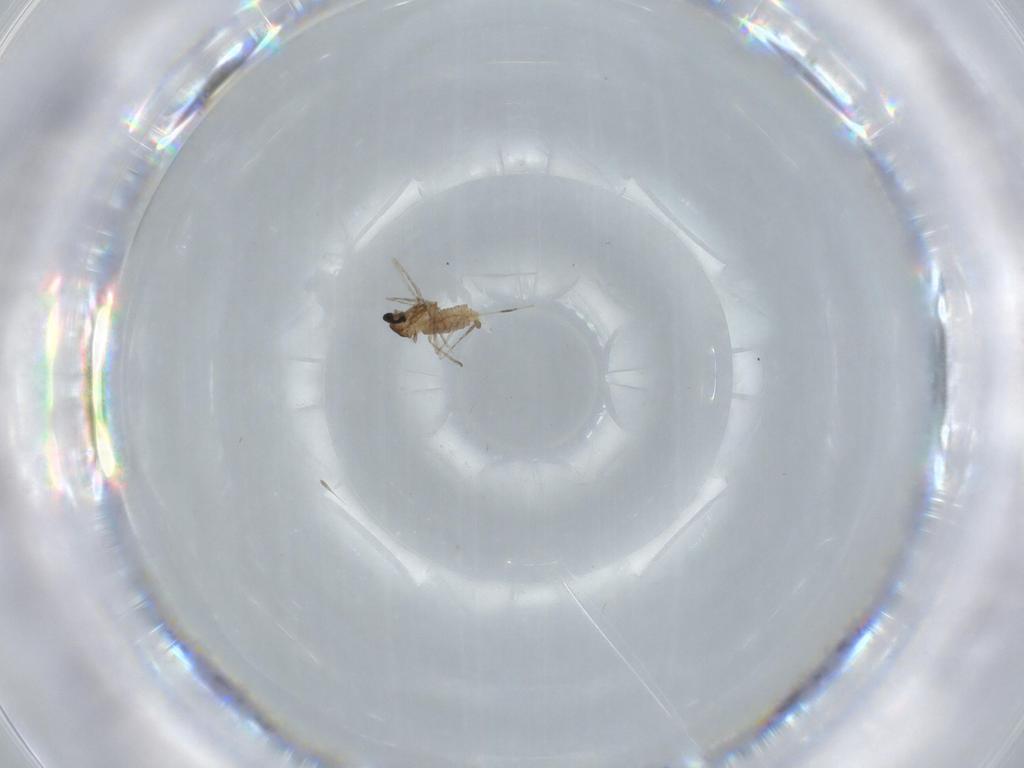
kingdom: Animalia
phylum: Arthropoda
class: Insecta
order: Diptera
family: Cecidomyiidae
